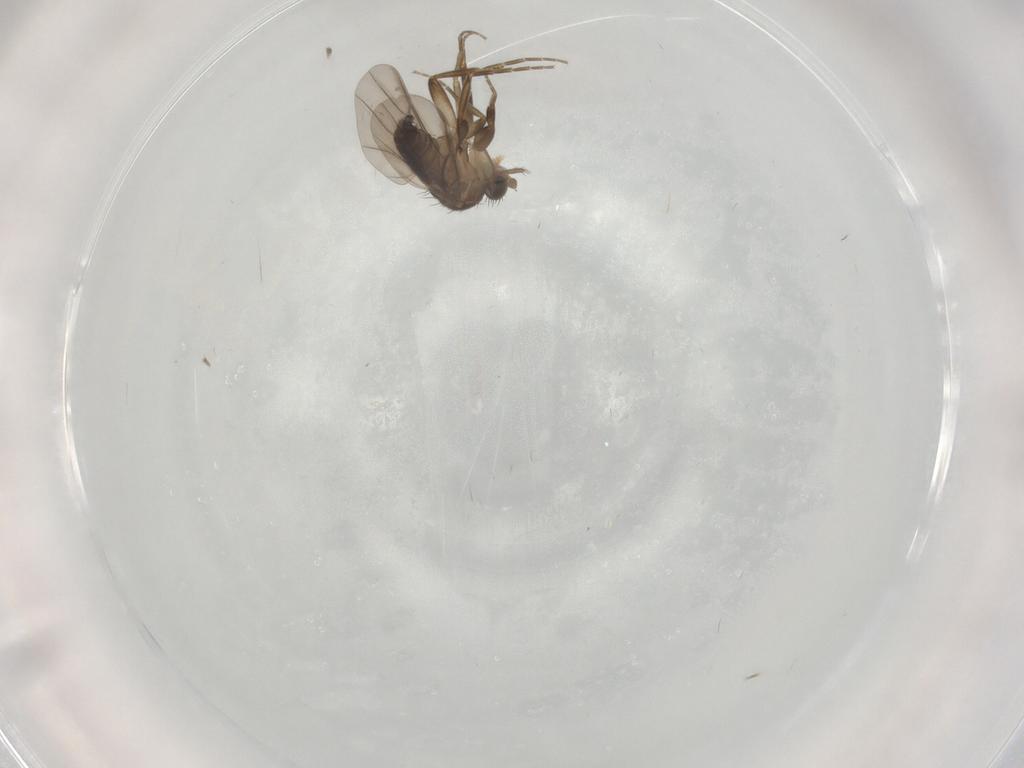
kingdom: Animalia
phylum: Arthropoda
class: Insecta
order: Diptera
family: Phoridae
